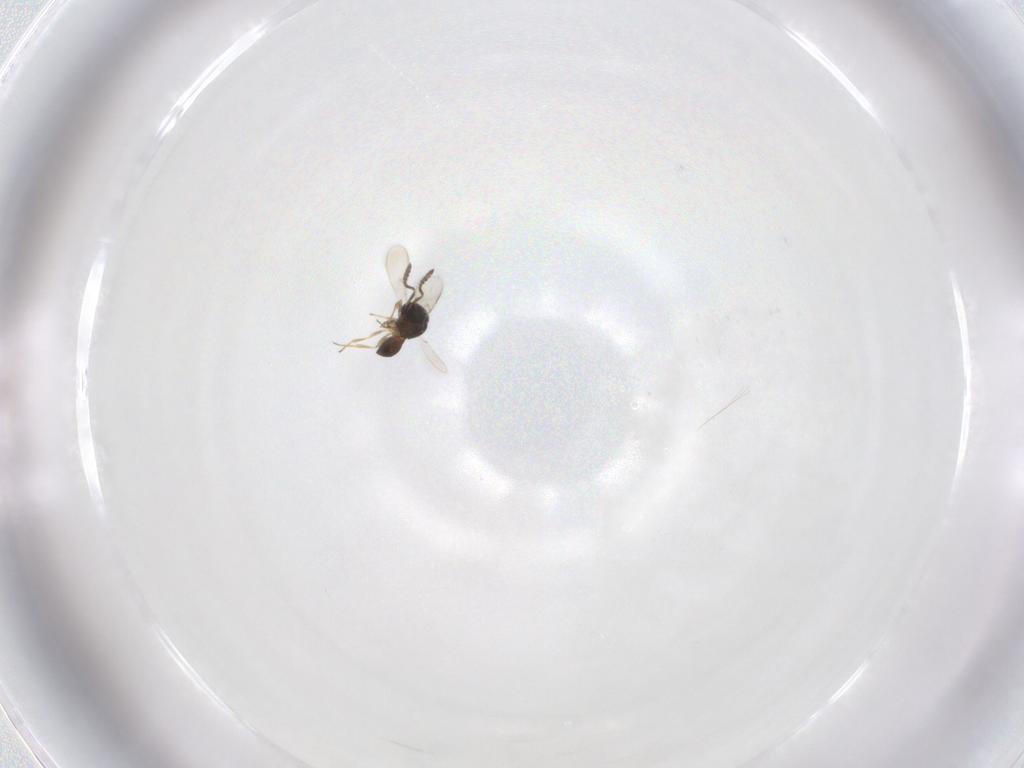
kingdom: Animalia
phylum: Arthropoda
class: Insecta
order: Hymenoptera
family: Scelionidae
